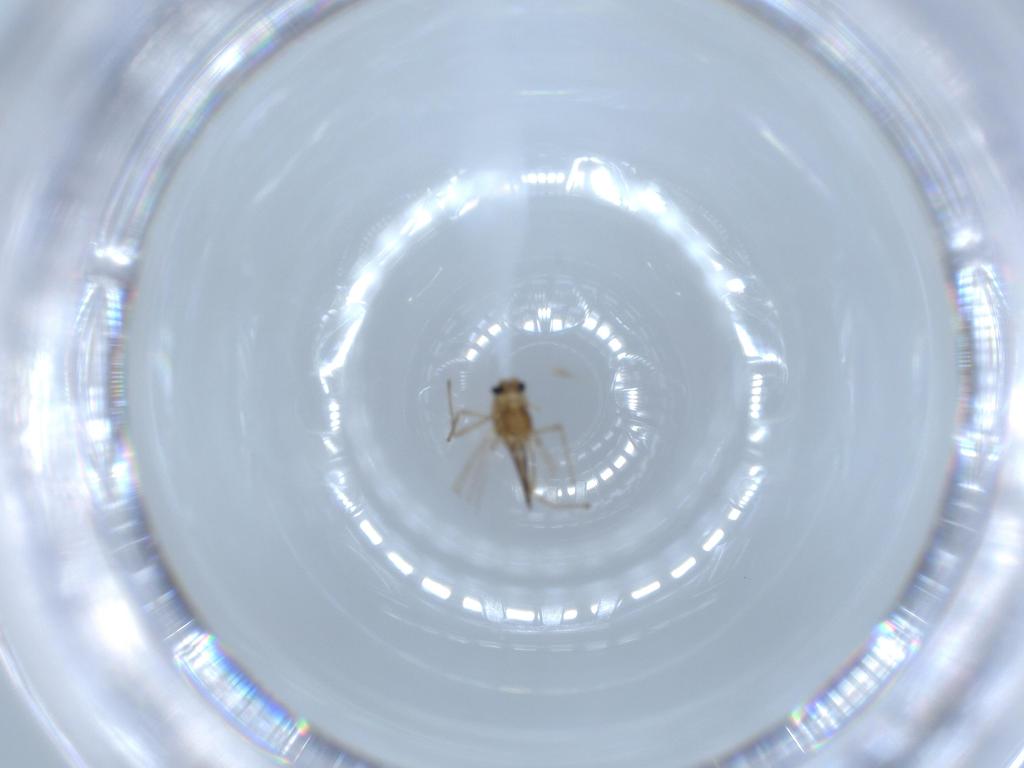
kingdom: Animalia
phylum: Arthropoda
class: Insecta
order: Diptera
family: Chironomidae
